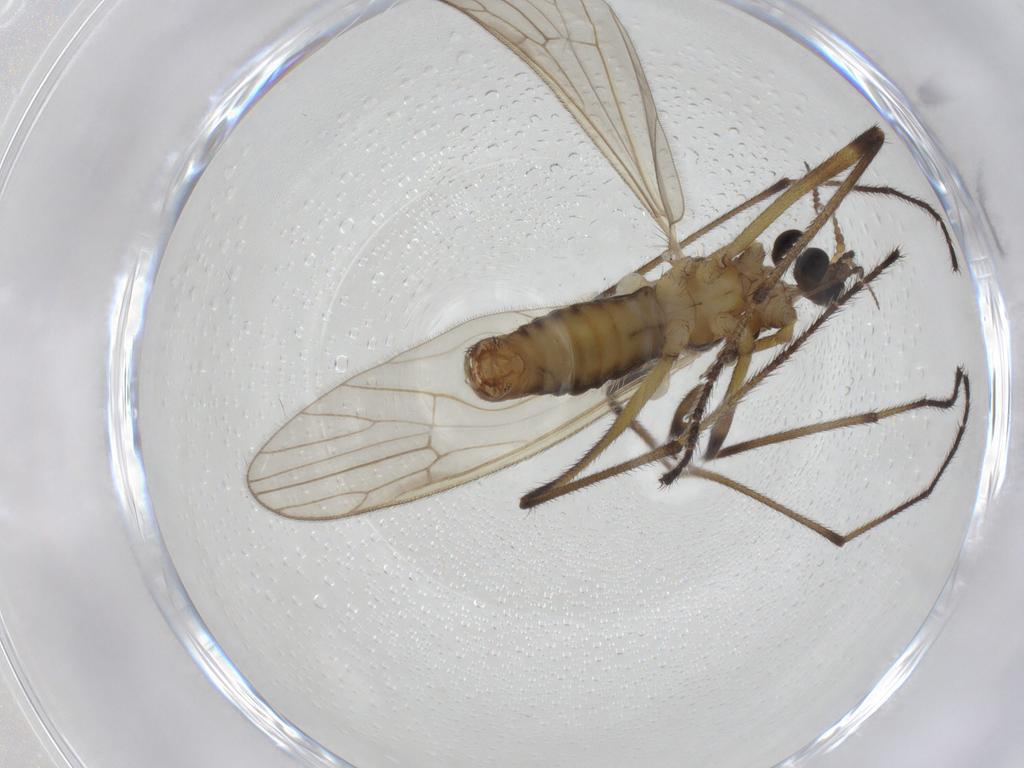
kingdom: Animalia
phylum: Arthropoda
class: Insecta
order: Diptera
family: Cecidomyiidae
